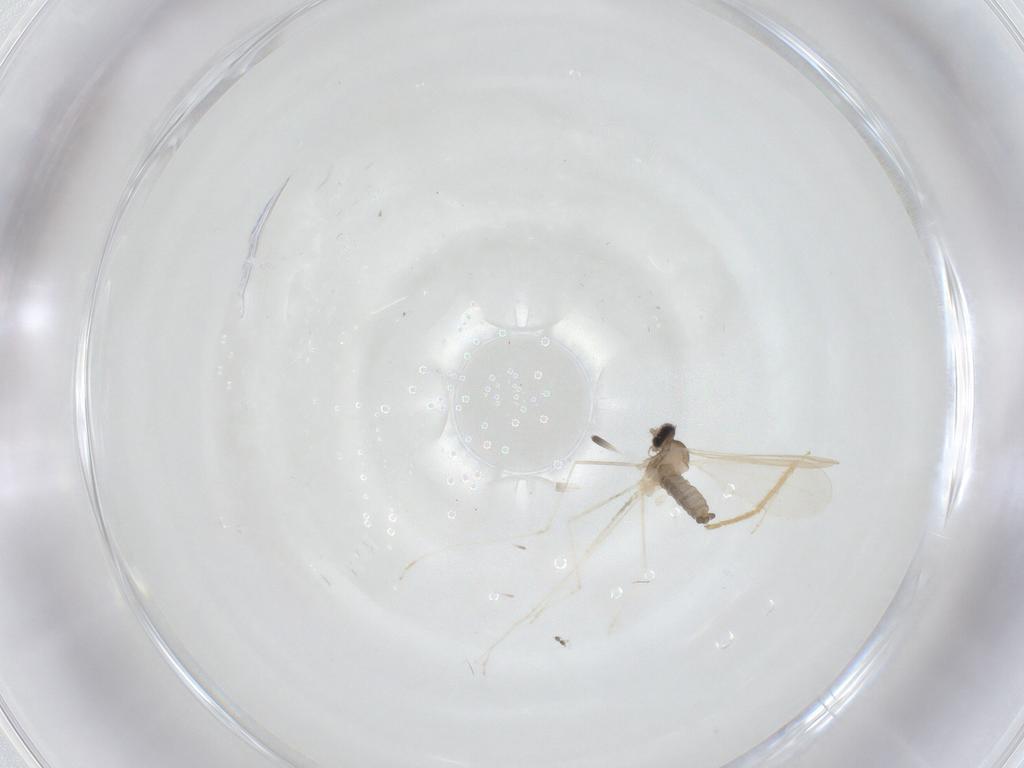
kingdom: Animalia
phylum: Arthropoda
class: Insecta
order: Diptera
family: Cecidomyiidae
